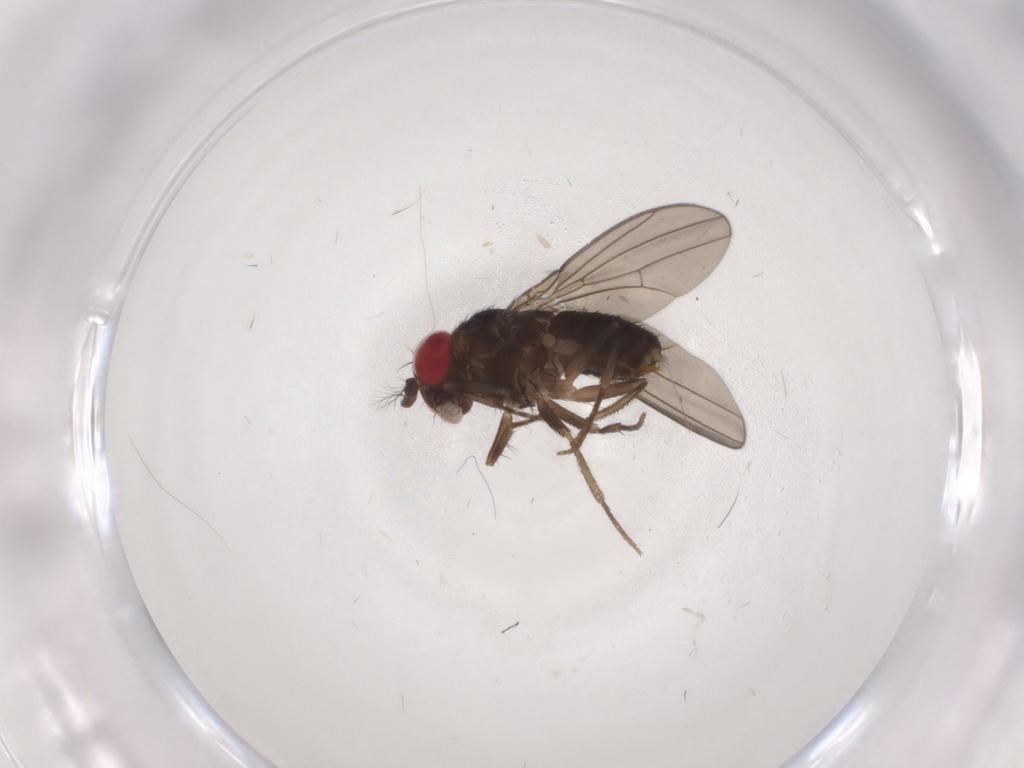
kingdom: Animalia
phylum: Arthropoda
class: Insecta
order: Diptera
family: Drosophilidae
